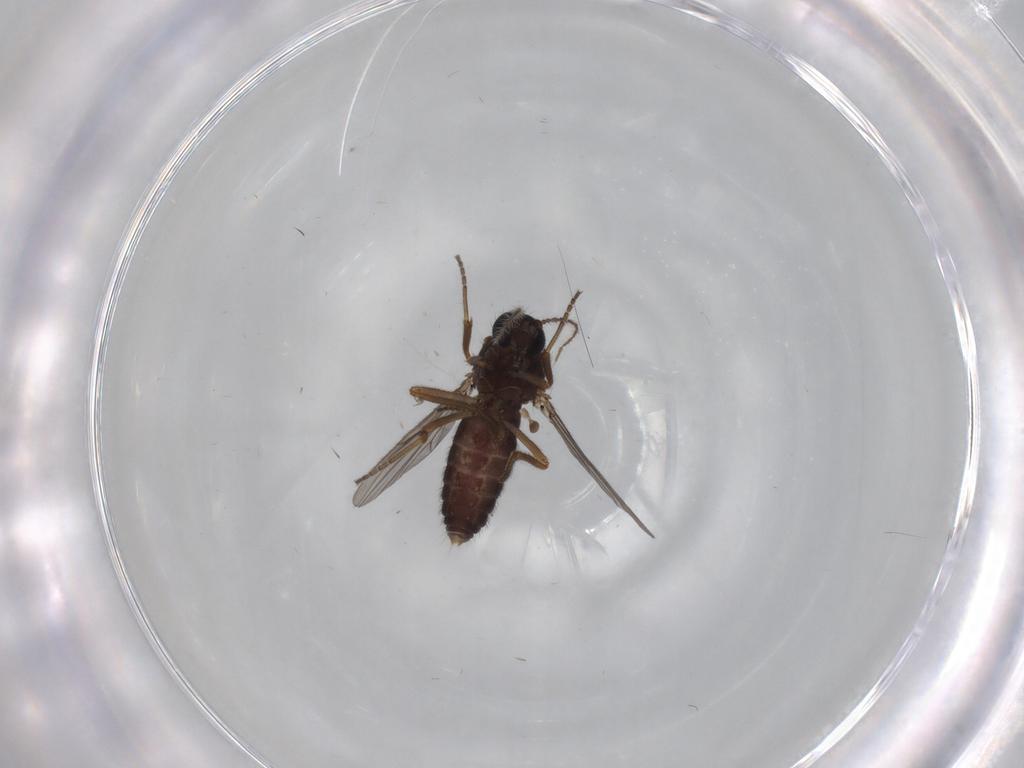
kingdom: Animalia
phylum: Arthropoda
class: Insecta
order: Diptera
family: Ceratopogonidae
